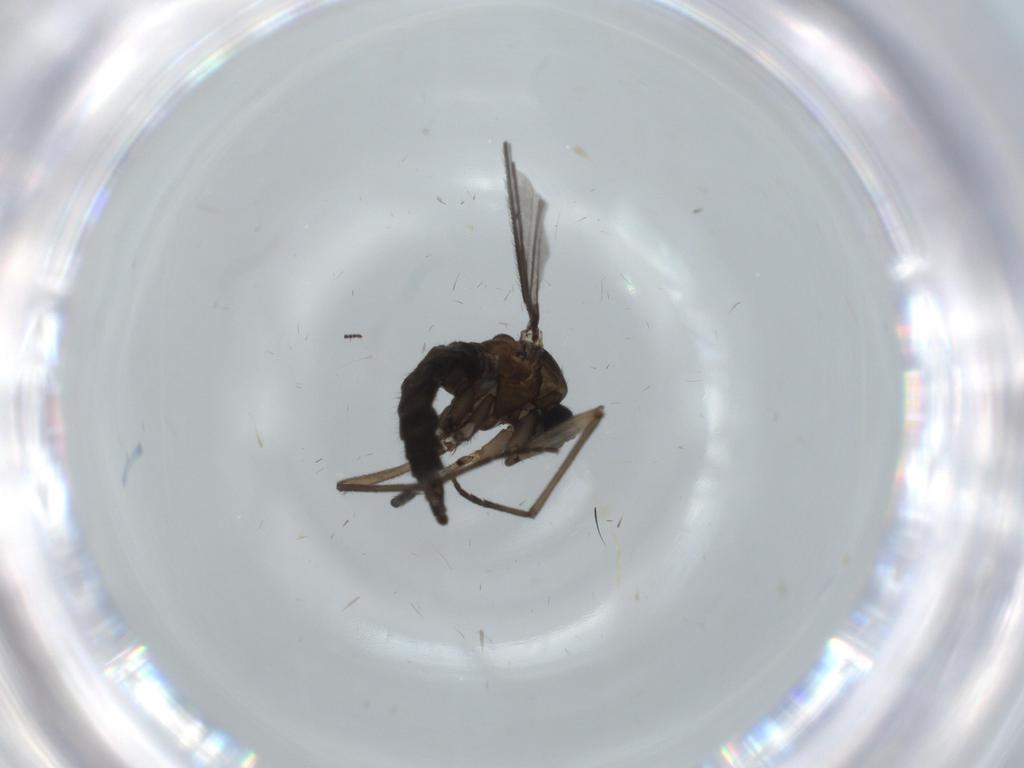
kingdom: Animalia
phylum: Arthropoda
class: Insecta
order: Diptera
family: Sciaridae
